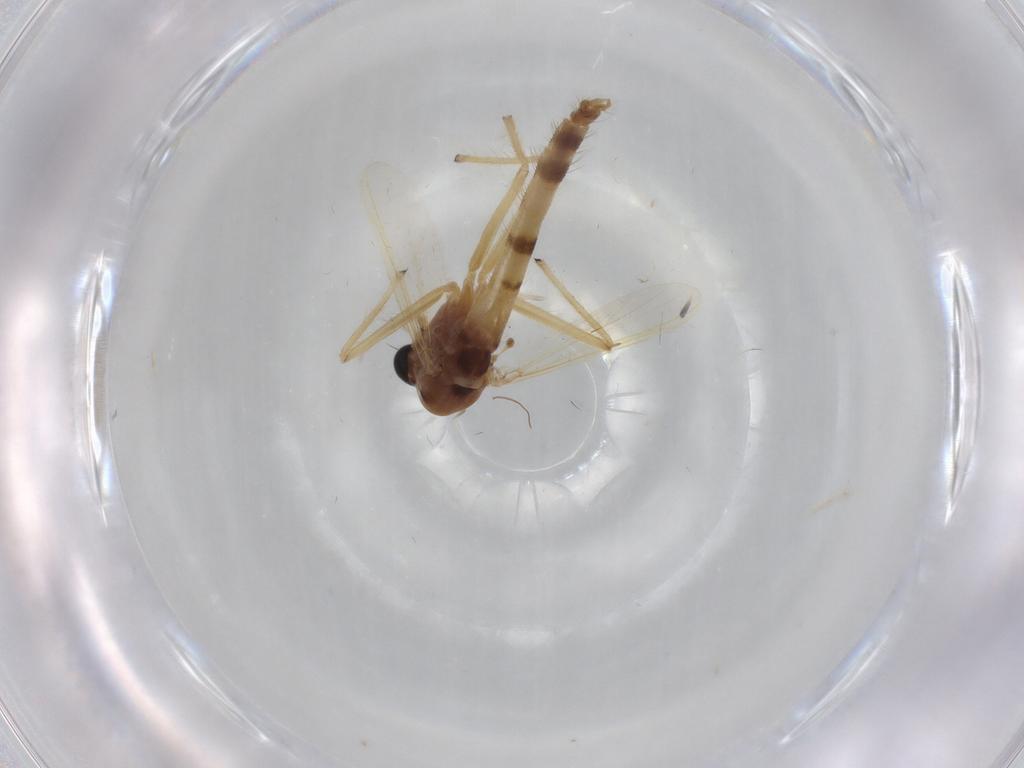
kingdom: Animalia
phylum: Arthropoda
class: Insecta
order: Diptera
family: Chironomidae
